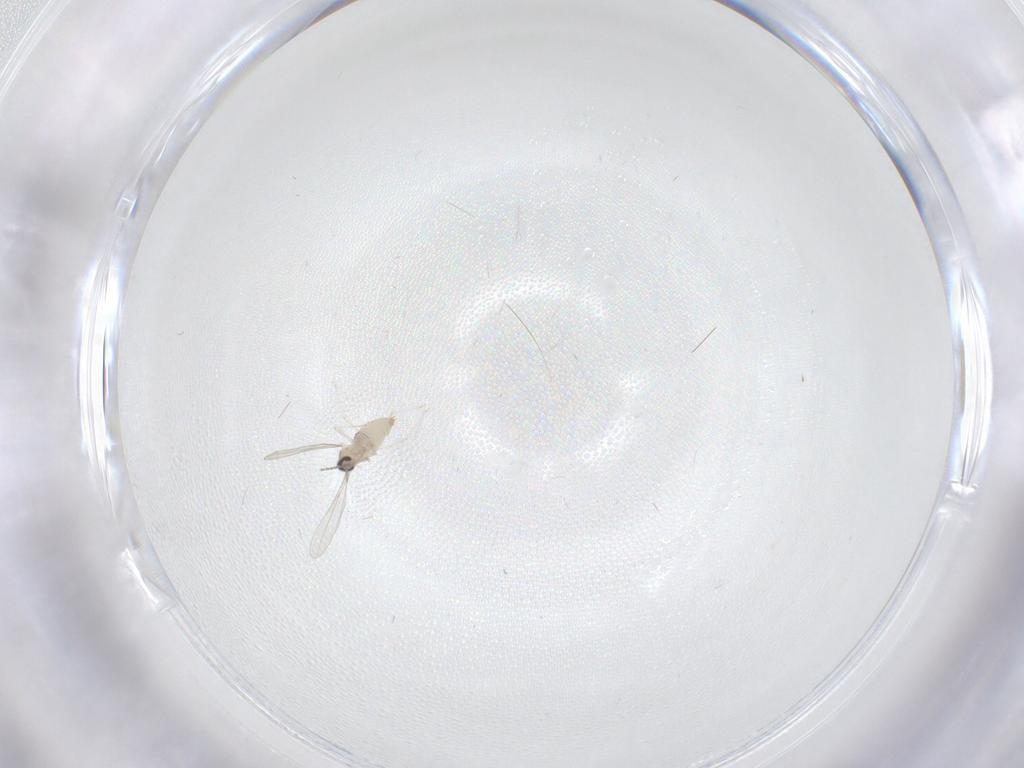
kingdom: Animalia
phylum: Arthropoda
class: Insecta
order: Diptera
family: Cecidomyiidae
